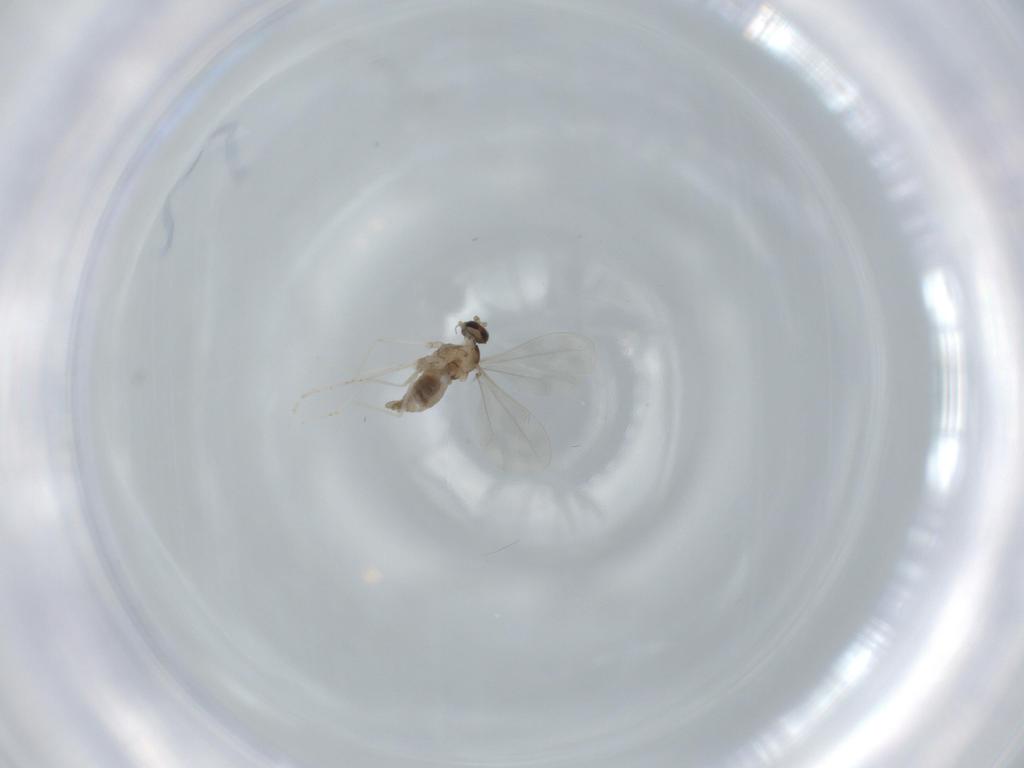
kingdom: Animalia
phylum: Arthropoda
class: Insecta
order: Diptera
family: Cecidomyiidae
